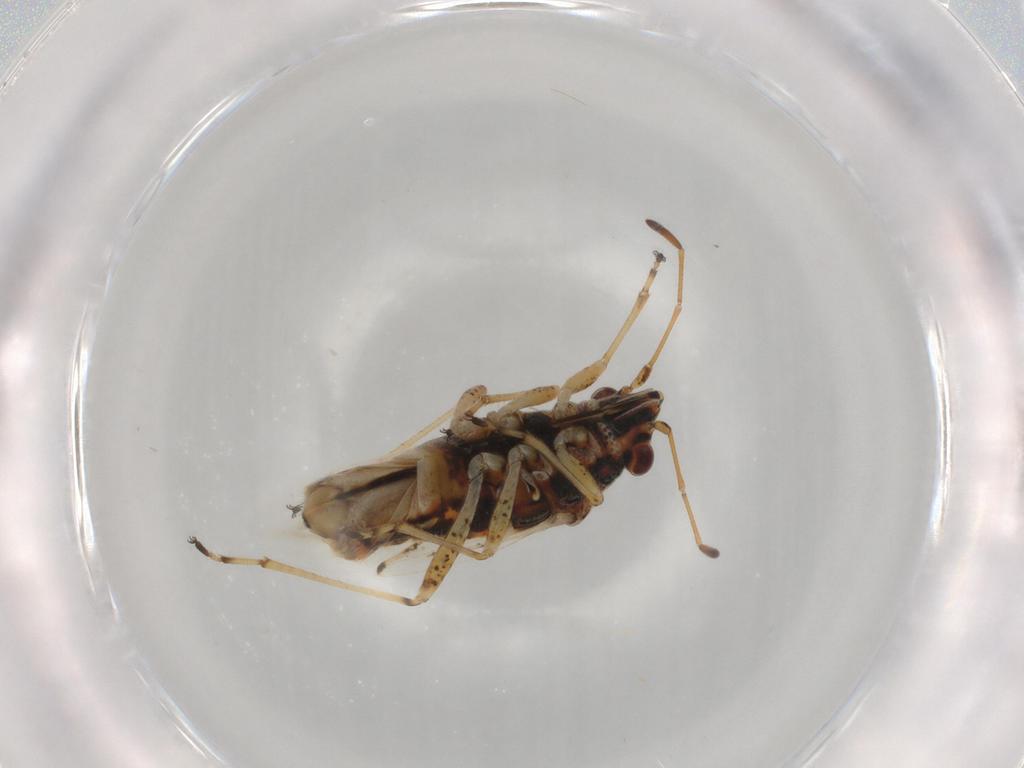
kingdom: Animalia
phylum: Arthropoda
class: Insecta
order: Hemiptera
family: Lygaeidae
